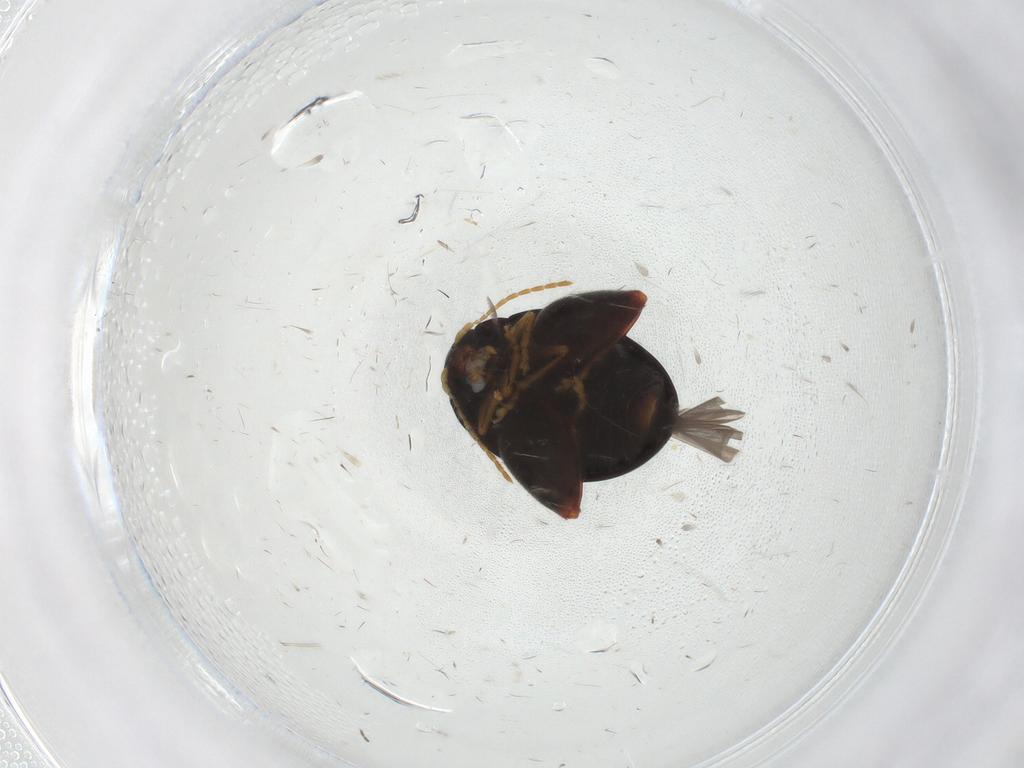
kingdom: Animalia
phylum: Arthropoda
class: Insecta
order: Coleoptera
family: Chrysomelidae
